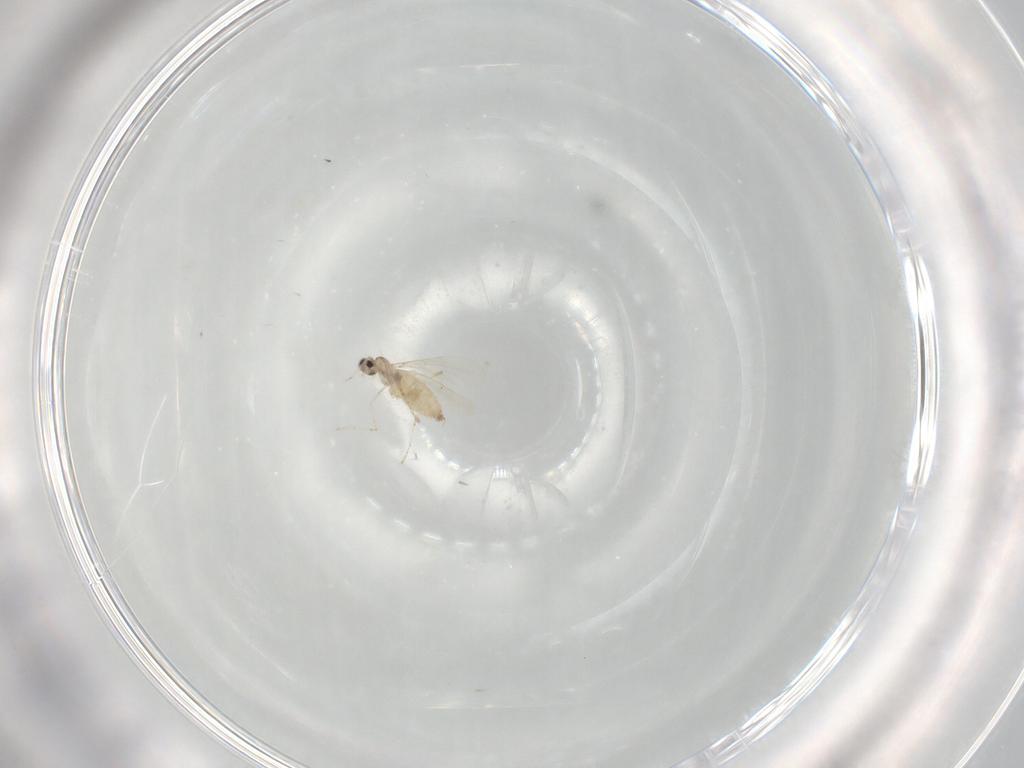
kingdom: Animalia
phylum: Arthropoda
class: Insecta
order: Diptera
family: Cecidomyiidae
